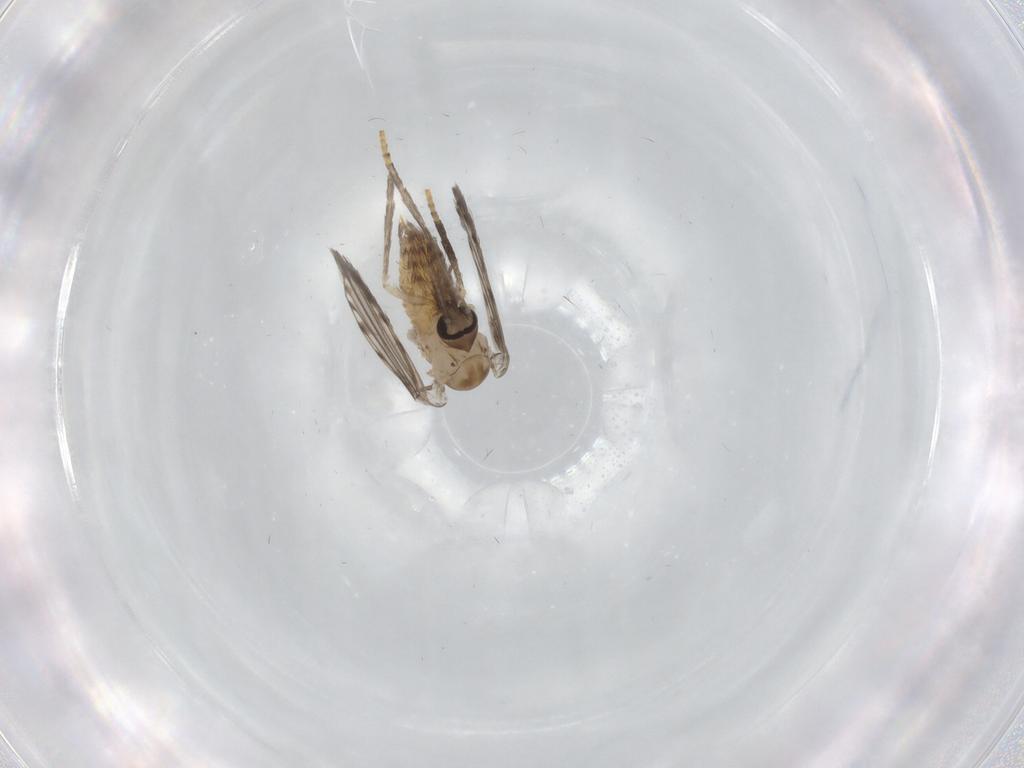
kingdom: Animalia
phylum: Arthropoda
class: Insecta
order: Diptera
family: Psychodidae
